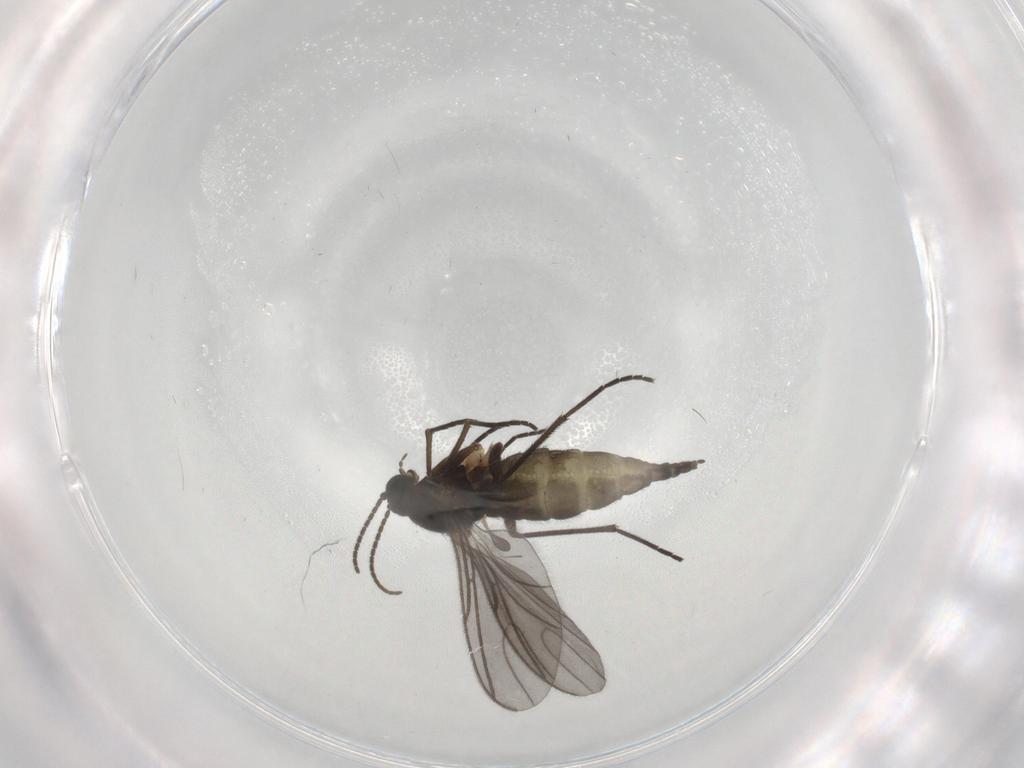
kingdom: Animalia
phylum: Arthropoda
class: Insecta
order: Diptera
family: Sciaridae
